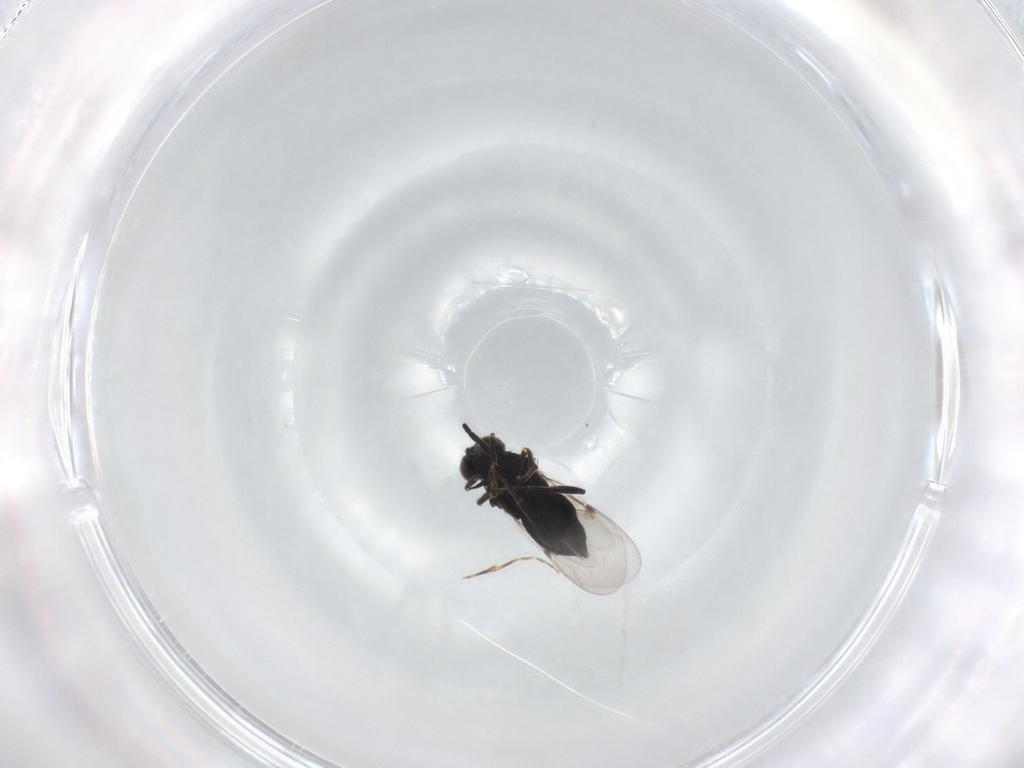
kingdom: Animalia
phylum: Arthropoda
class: Insecta
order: Hymenoptera
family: Encyrtidae
